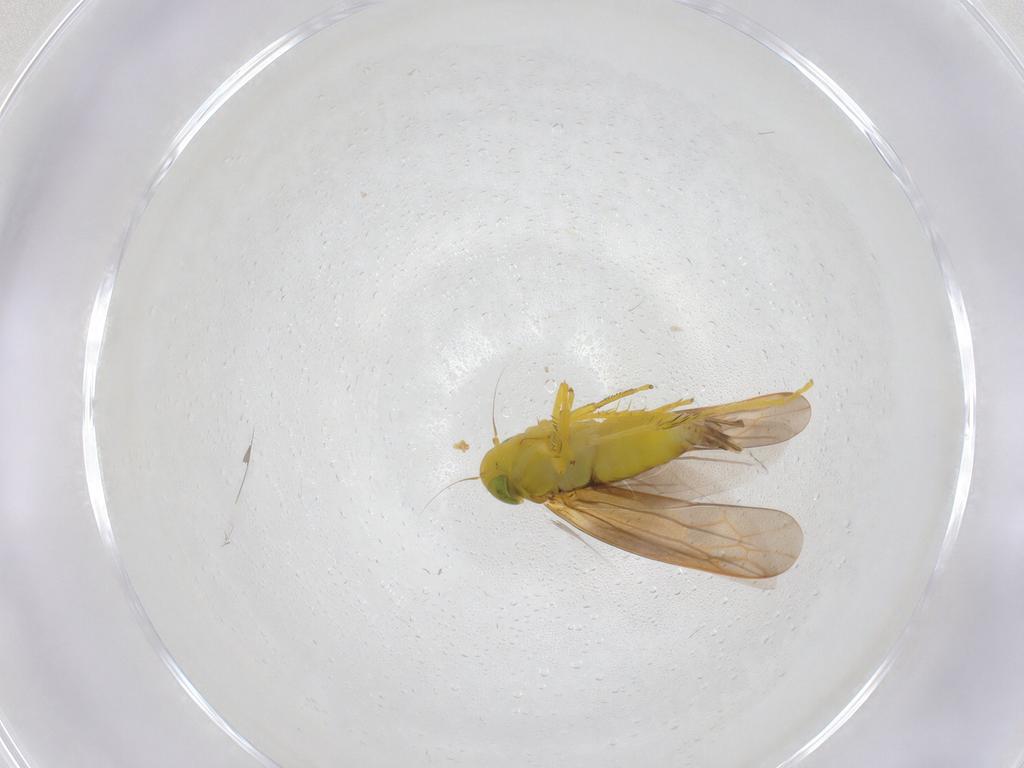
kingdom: Animalia
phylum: Arthropoda
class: Insecta
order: Hemiptera
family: Cicadellidae
